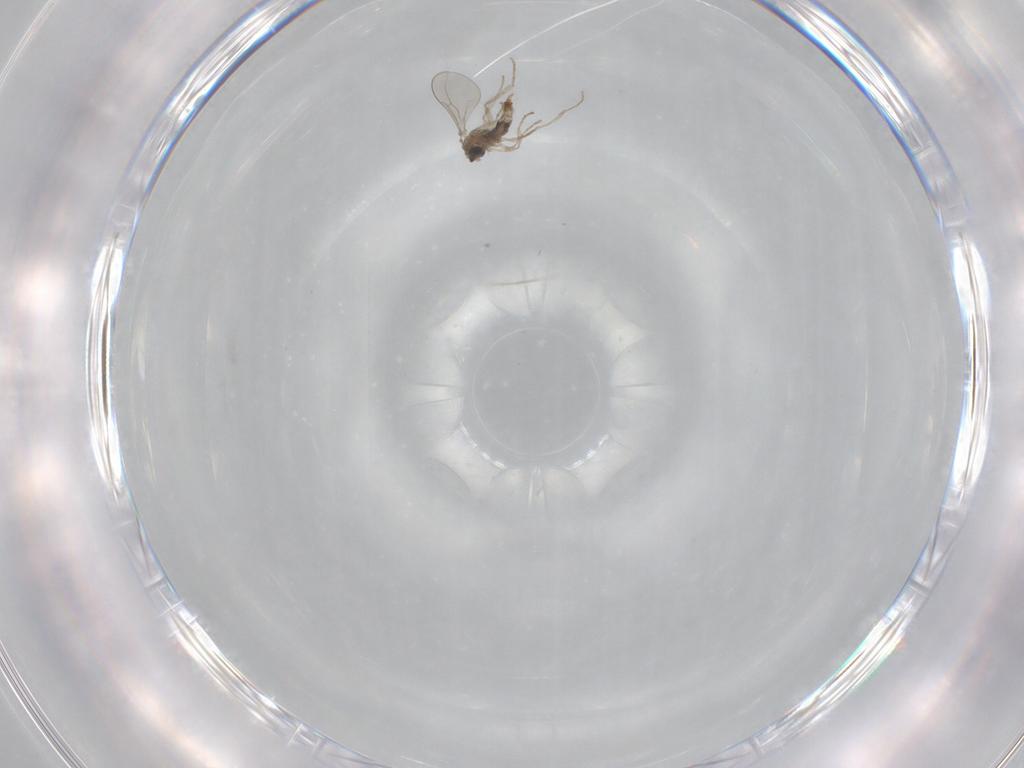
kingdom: Animalia
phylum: Arthropoda
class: Insecta
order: Diptera
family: Cecidomyiidae
